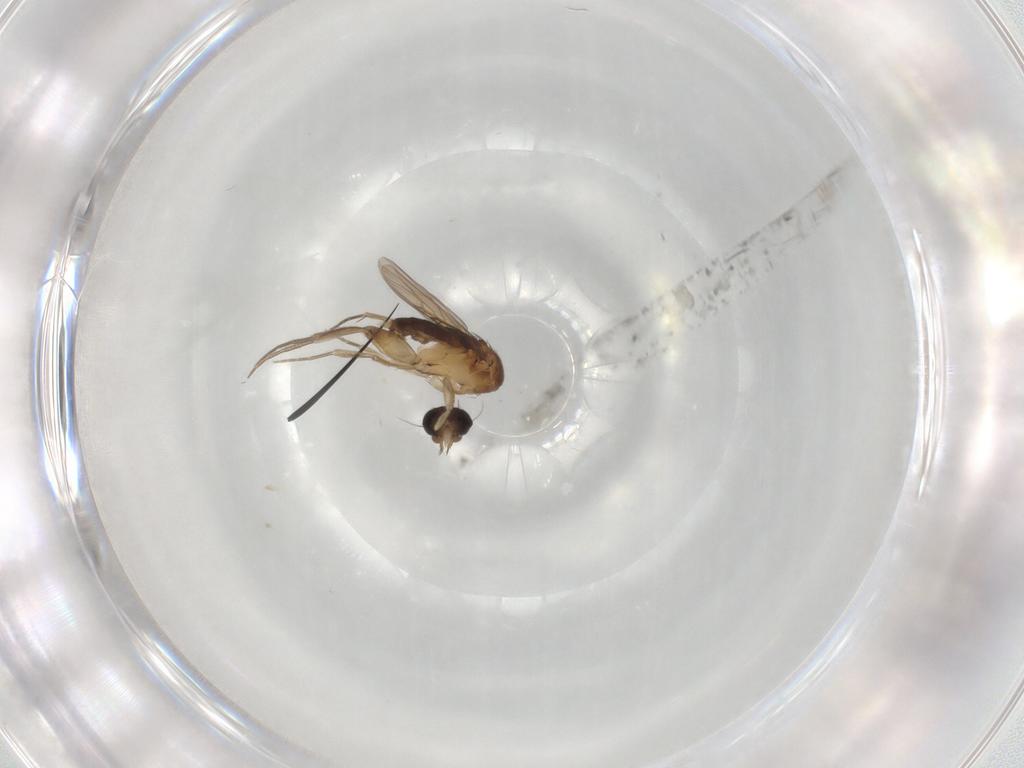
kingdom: Animalia
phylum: Arthropoda
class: Insecta
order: Diptera
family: Phoridae
